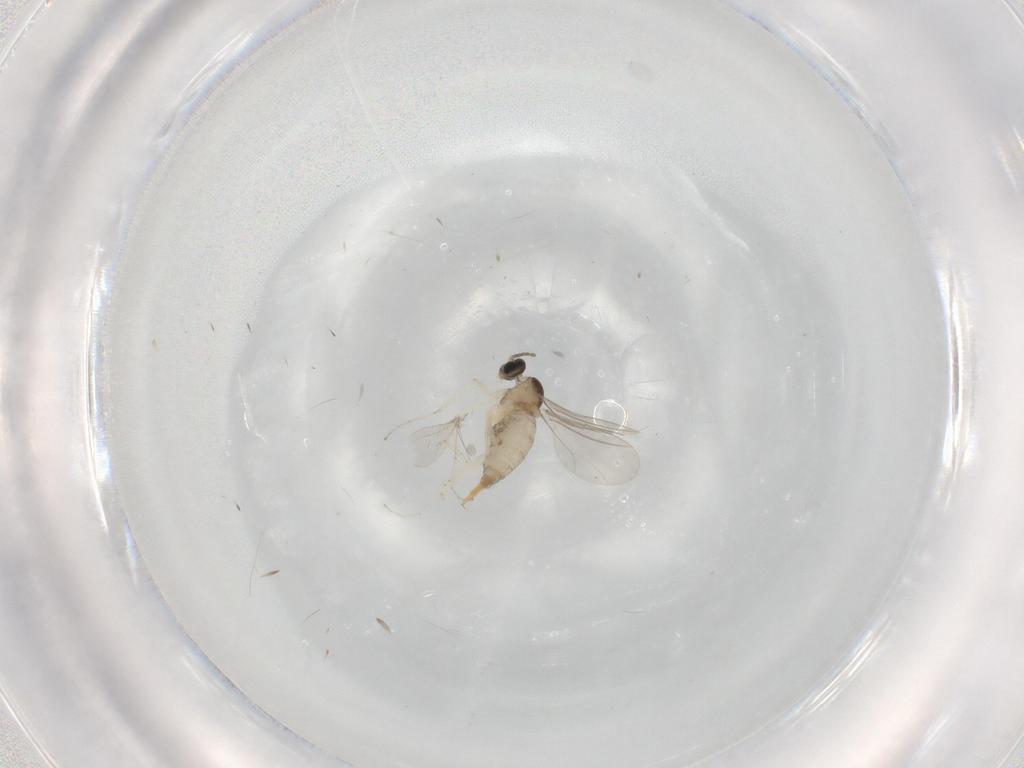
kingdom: Animalia
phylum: Arthropoda
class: Insecta
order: Diptera
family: Cecidomyiidae
